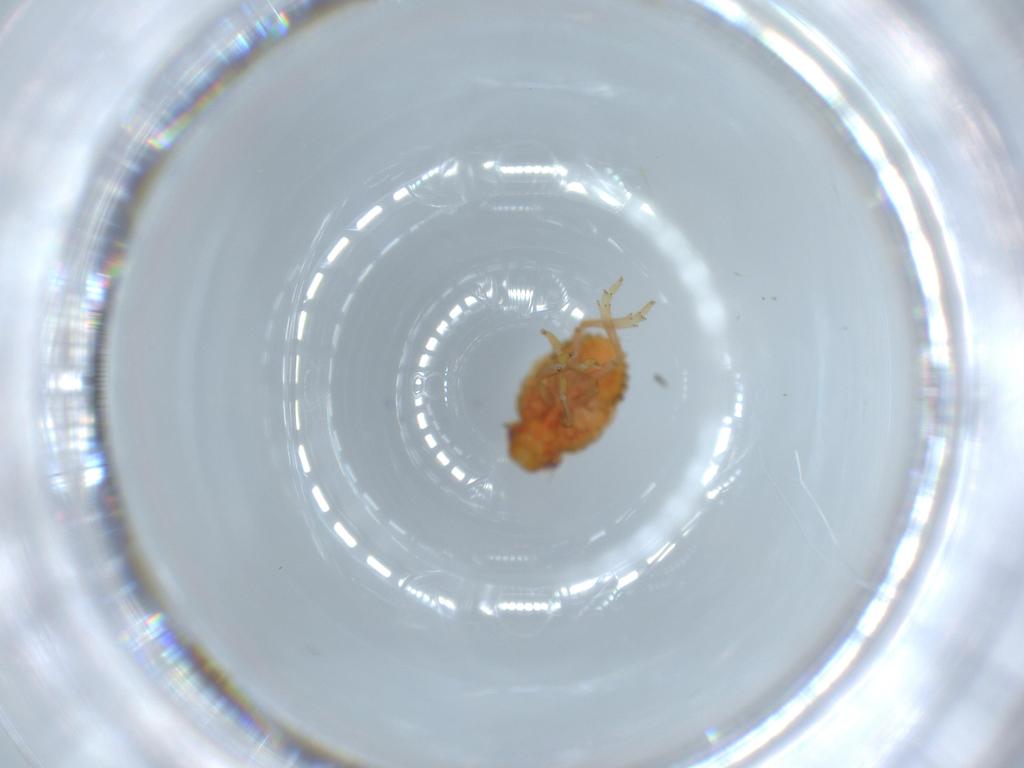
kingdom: Animalia
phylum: Arthropoda
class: Insecta
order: Hemiptera
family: Issidae
